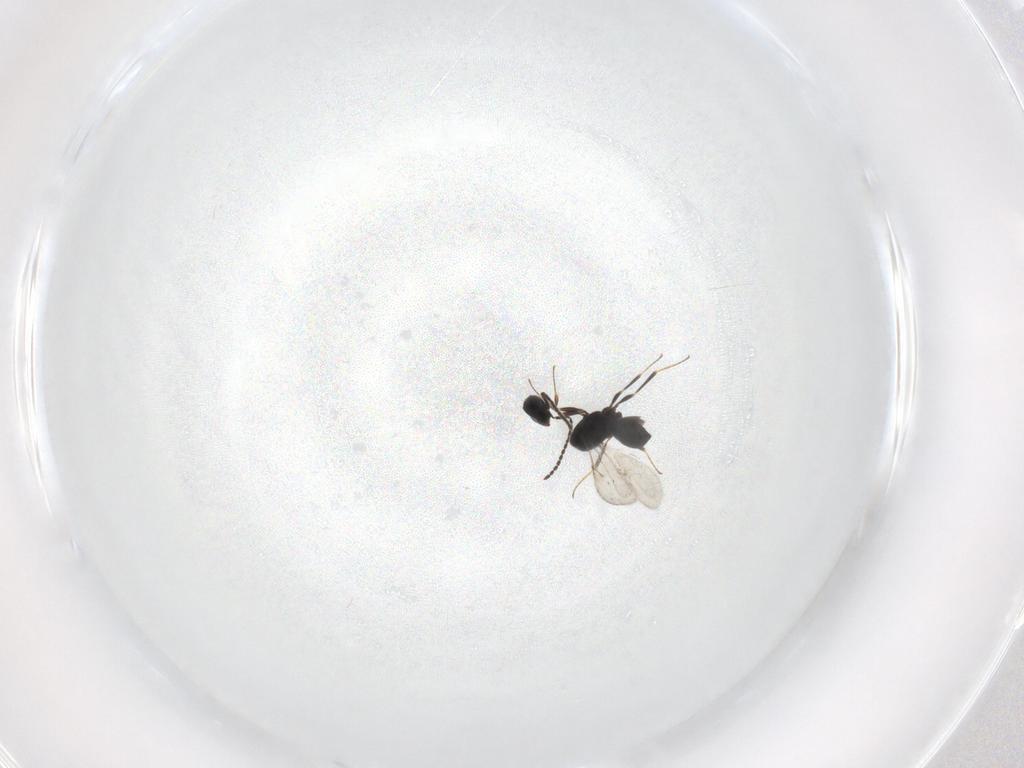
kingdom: Animalia
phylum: Arthropoda
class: Insecta
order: Hymenoptera
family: Scelionidae
